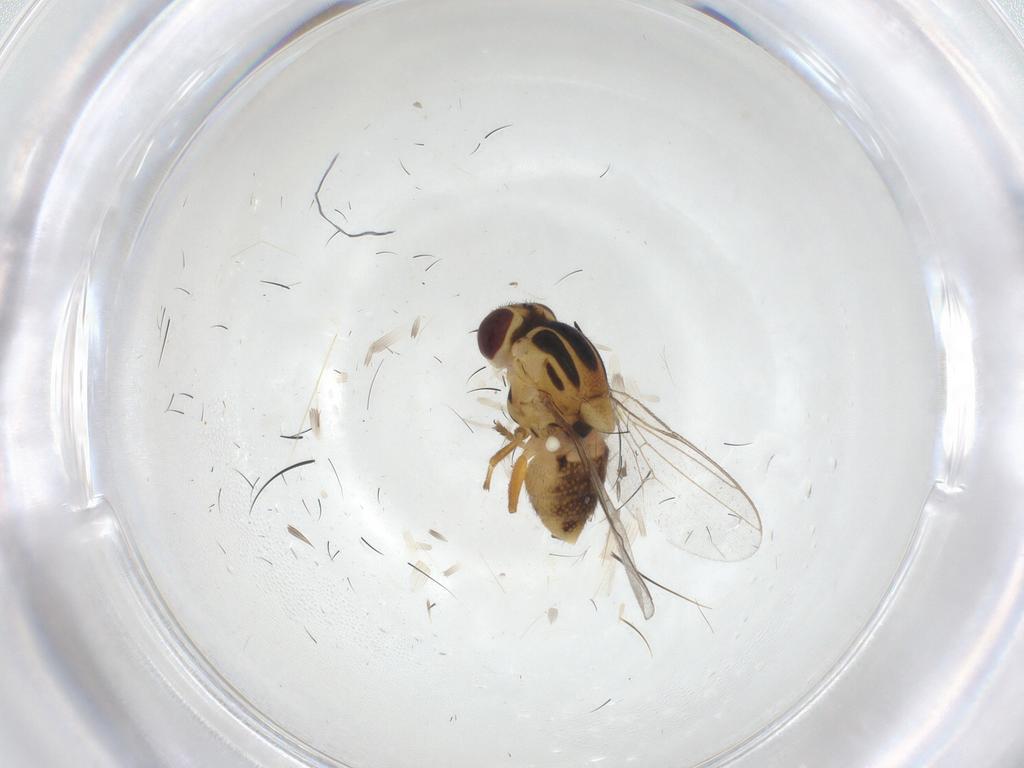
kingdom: Animalia
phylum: Arthropoda
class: Insecta
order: Diptera
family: Chloropidae
